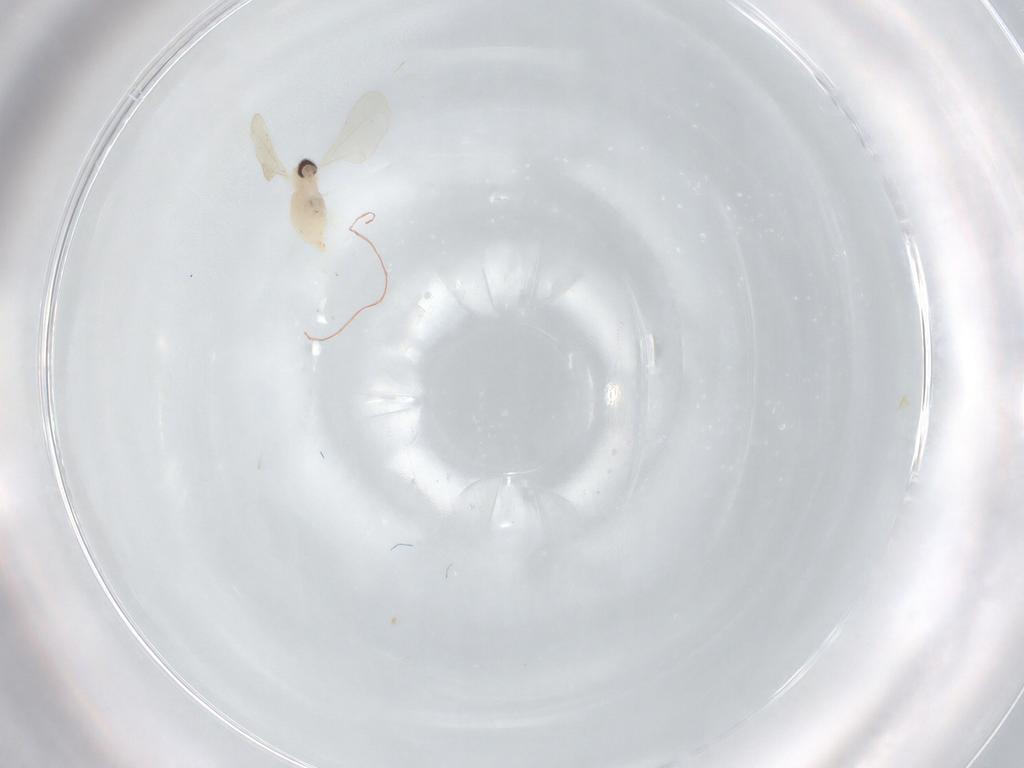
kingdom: Animalia
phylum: Arthropoda
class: Insecta
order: Diptera
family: Cecidomyiidae
